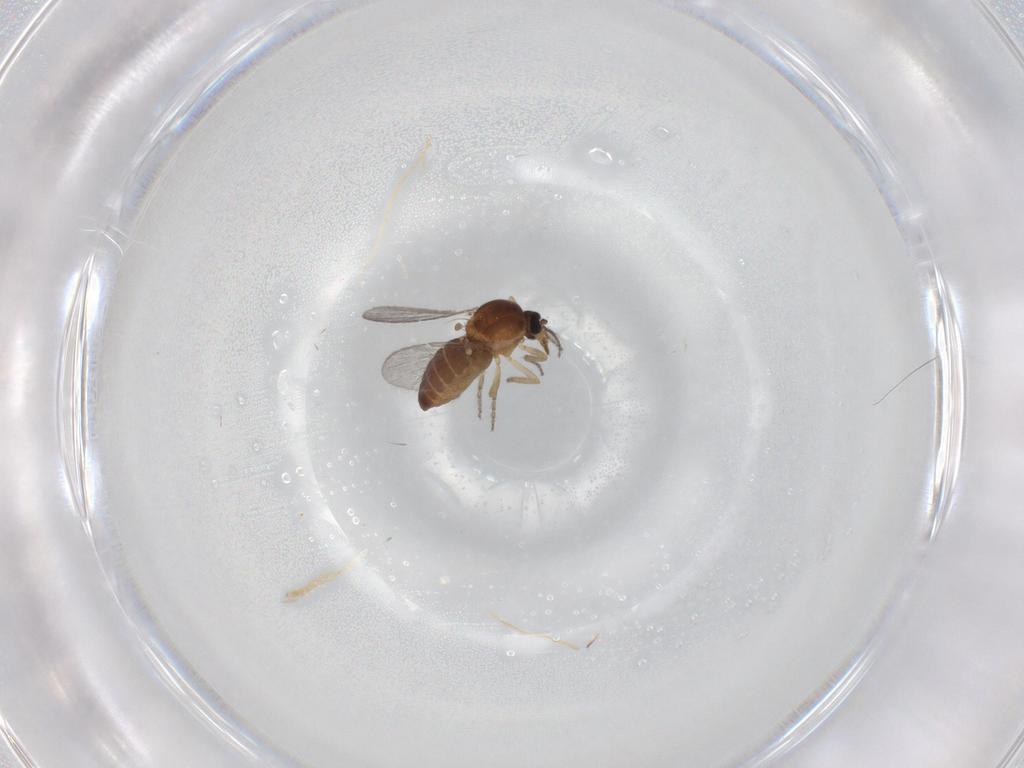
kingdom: Animalia
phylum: Arthropoda
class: Insecta
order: Diptera
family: Ceratopogonidae
